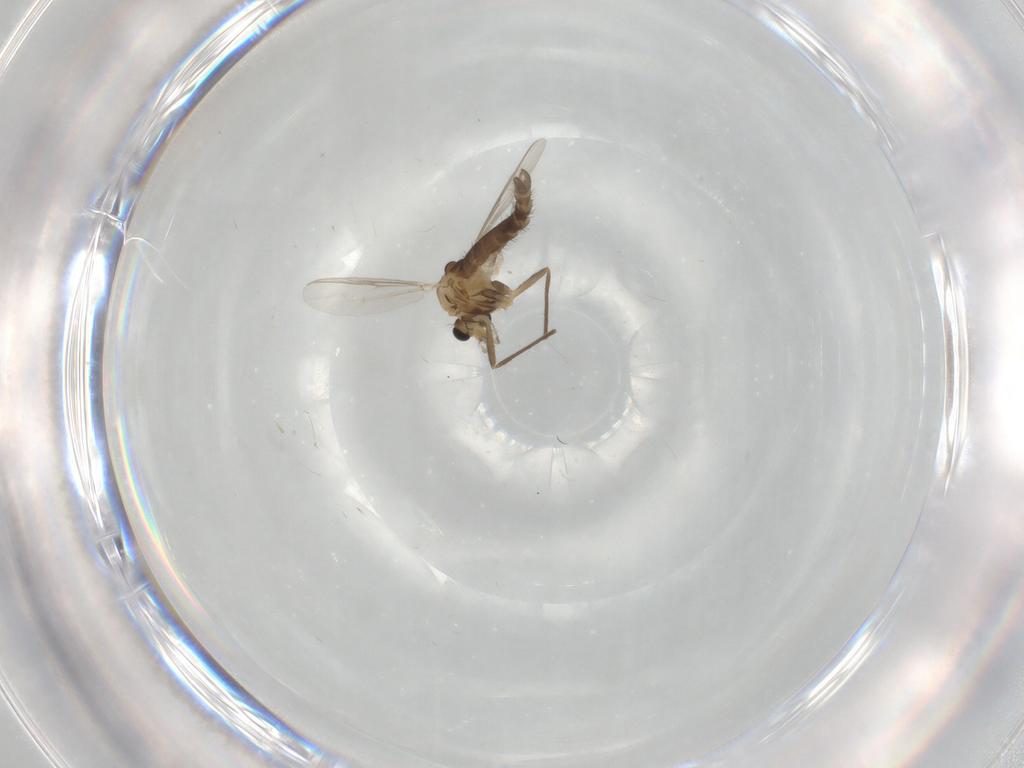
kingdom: Animalia
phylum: Arthropoda
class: Insecta
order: Diptera
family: Chironomidae
